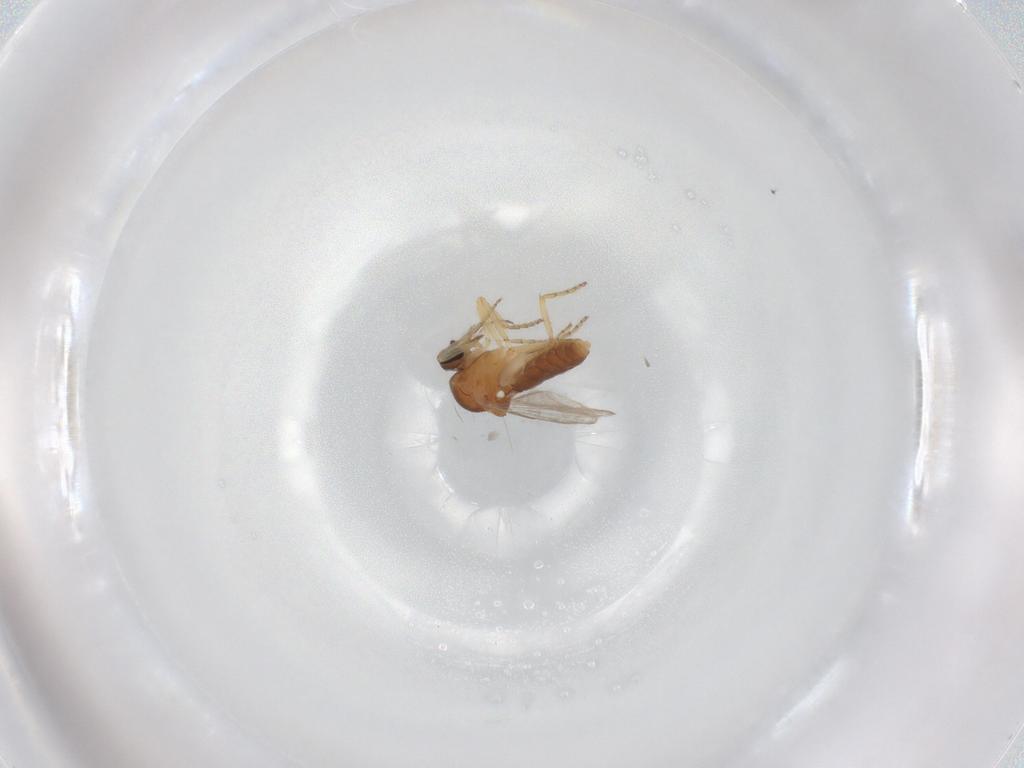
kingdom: Animalia
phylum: Arthropoda
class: Insecta
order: Diptera
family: Ceratopogonidae
